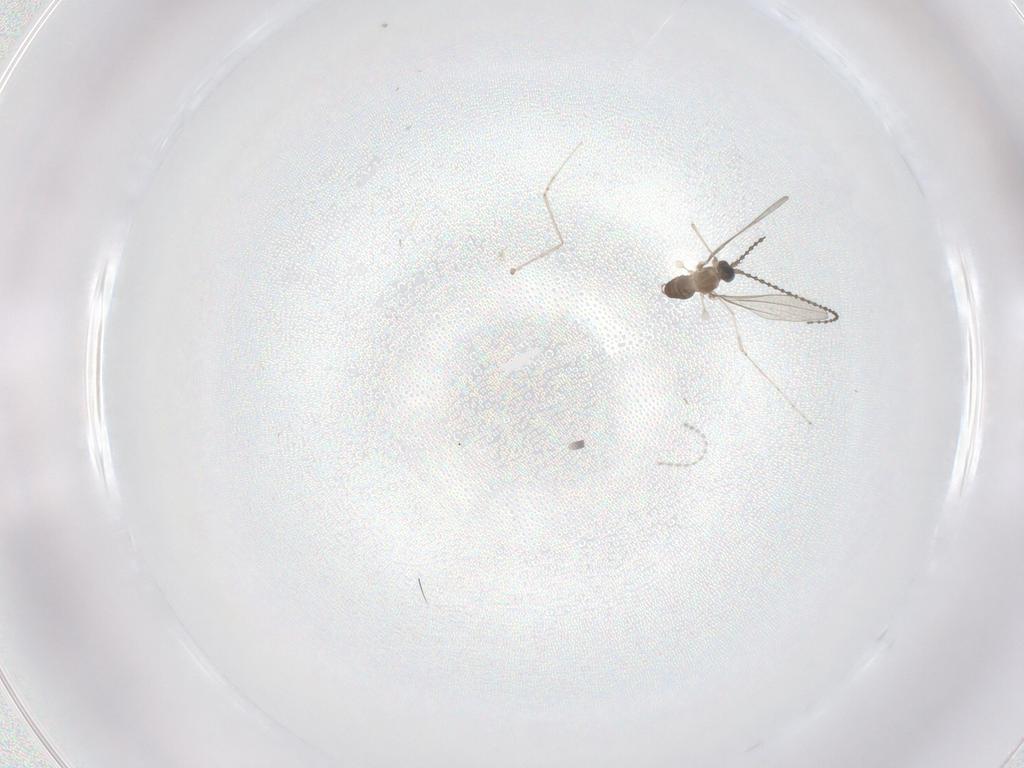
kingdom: Animalia
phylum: Arthropoda
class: Insecta
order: Diptera
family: Cecidomyiidae
